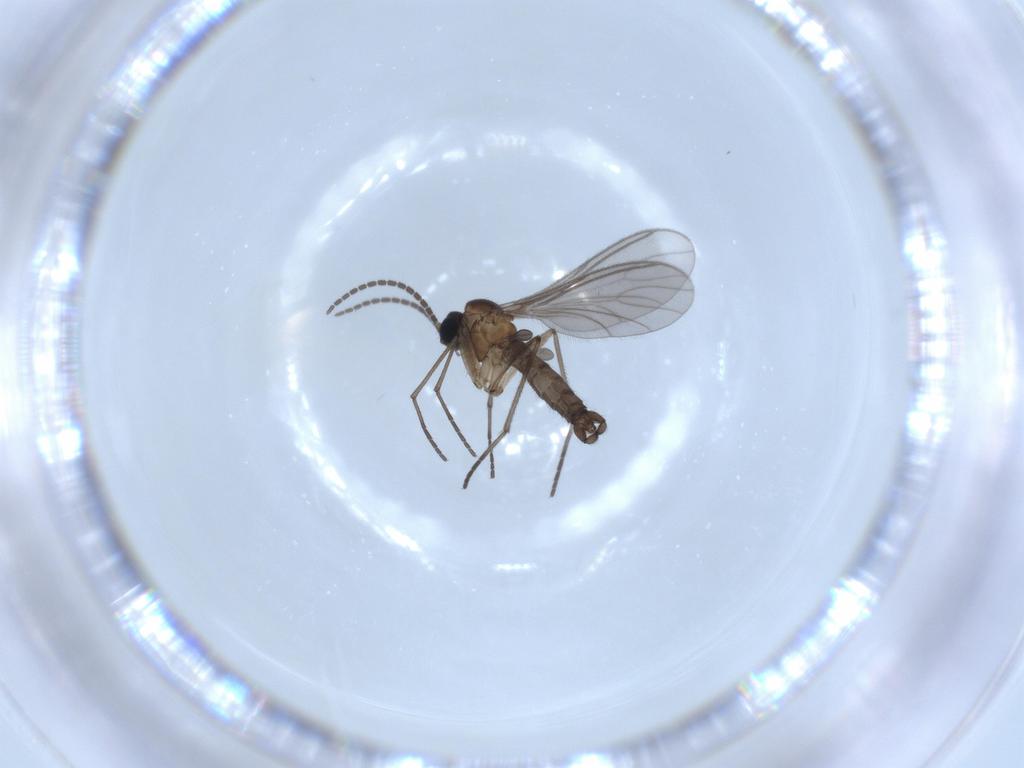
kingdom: Animalia
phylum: Arthropoda
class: Insecta
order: Diptera
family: Sciaridae
